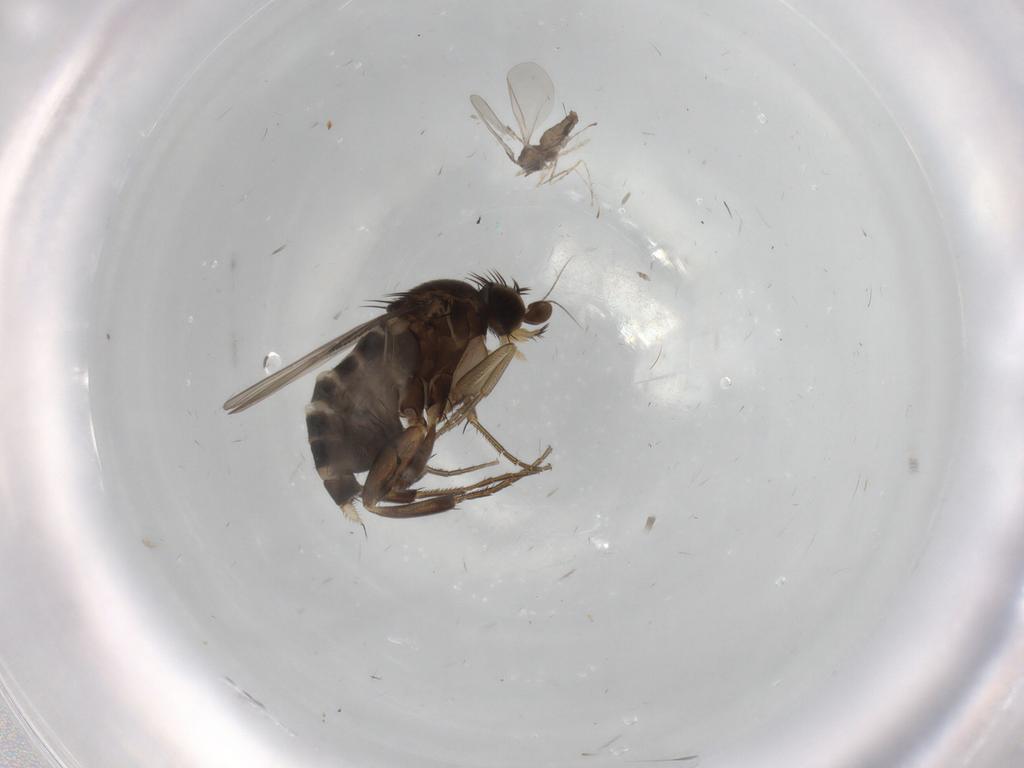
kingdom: Animalia
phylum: Arthropoda
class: Insecta
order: Diptera
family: Phoridae
